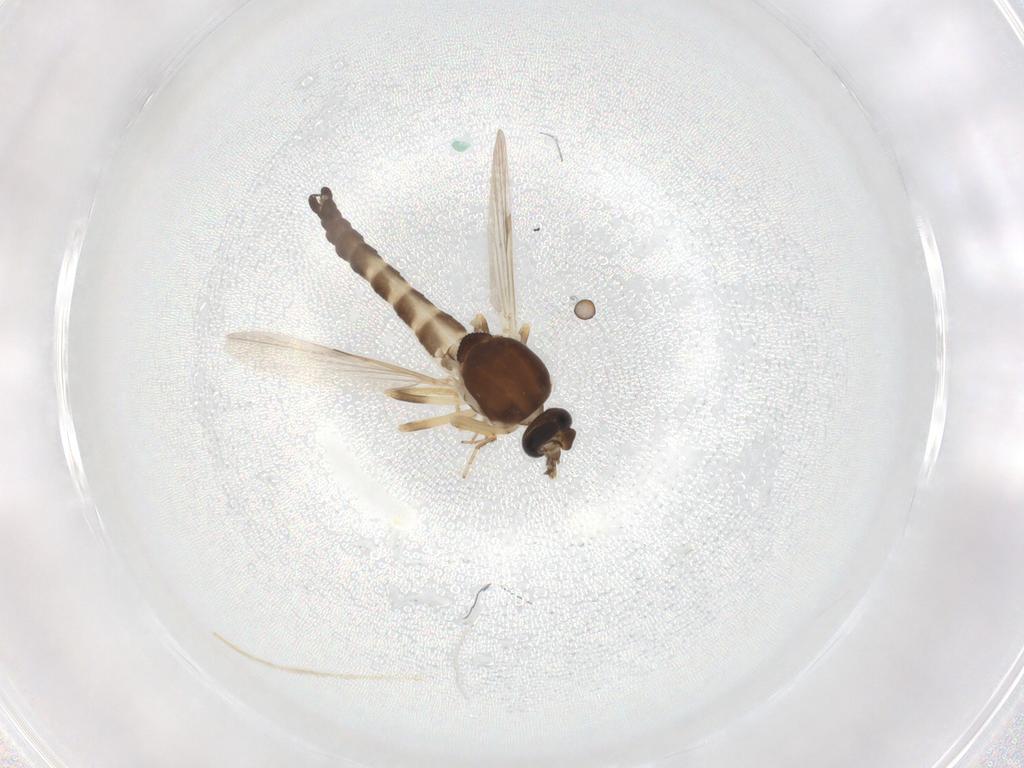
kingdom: Animalia
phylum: Arthropoda
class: Insecta
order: Diptera
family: Ceratopogonidae
